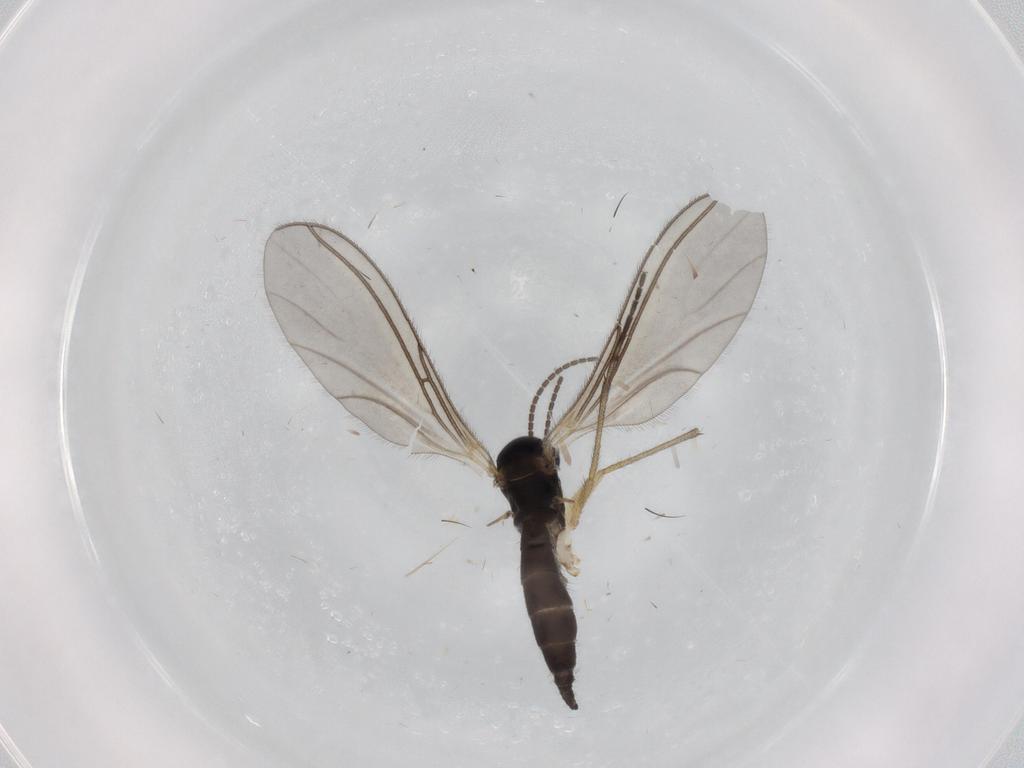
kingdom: Animalia
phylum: Arthropoda
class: Insecta
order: Diptera
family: Sciaridae
